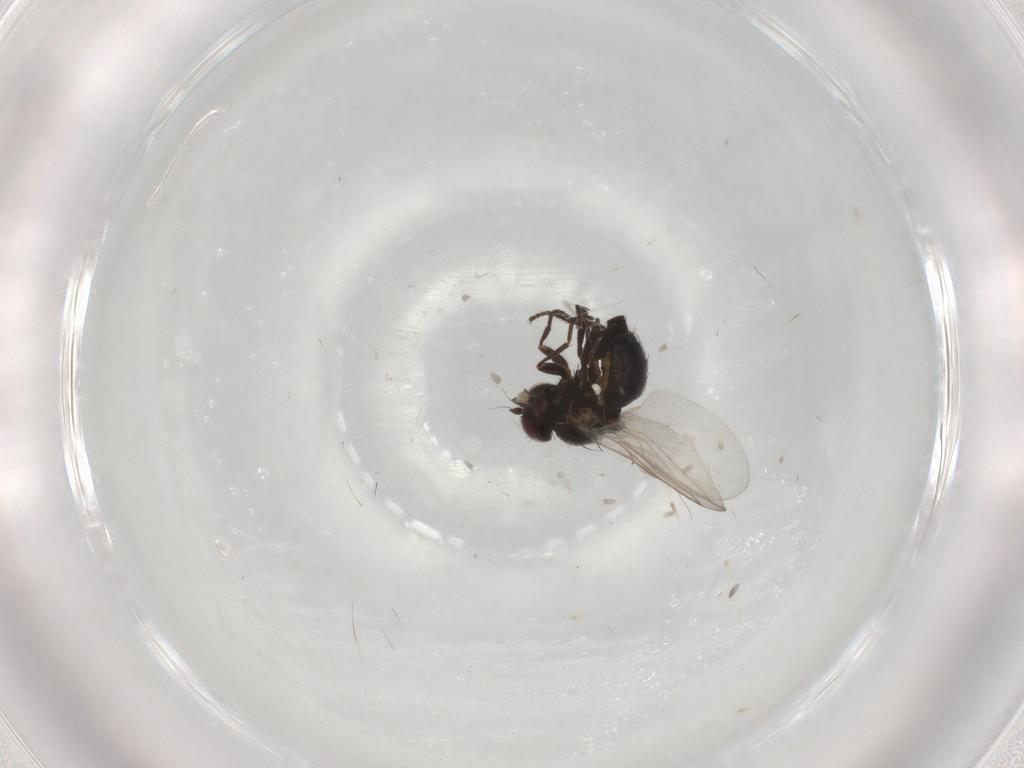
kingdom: Animalia
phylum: Arthropoda
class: Insecta
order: Diptera
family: Agromyzidae
